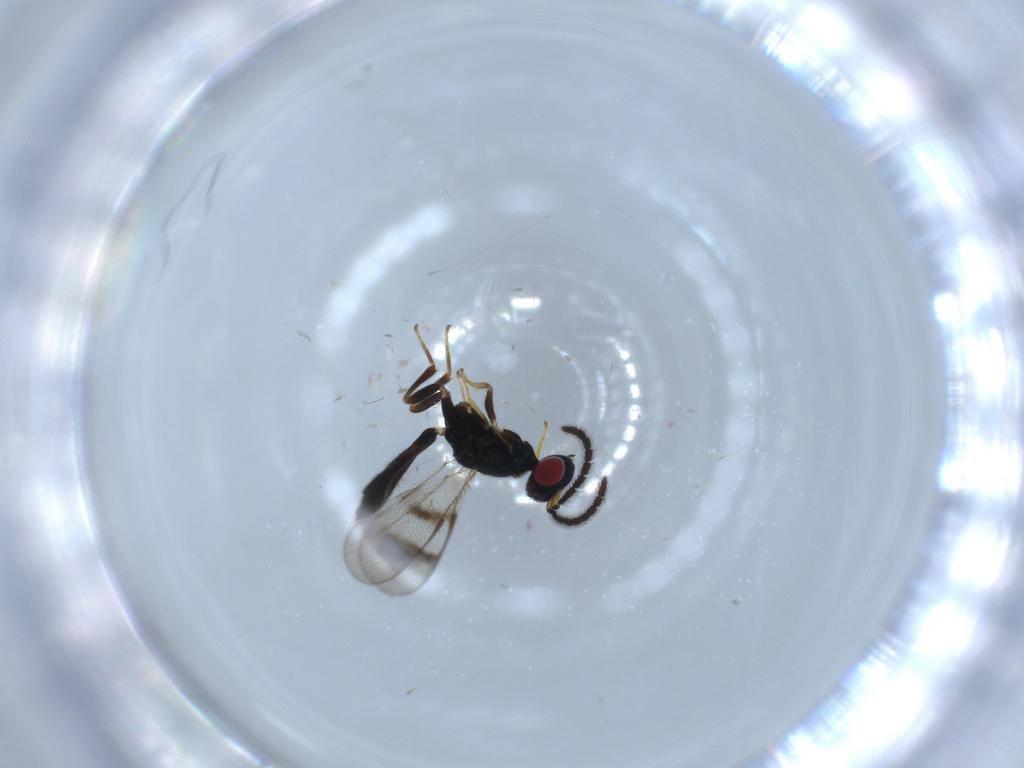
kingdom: Animalia
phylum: Arthropoda
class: Insecta
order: Hymenoptera
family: Pteromalidae
